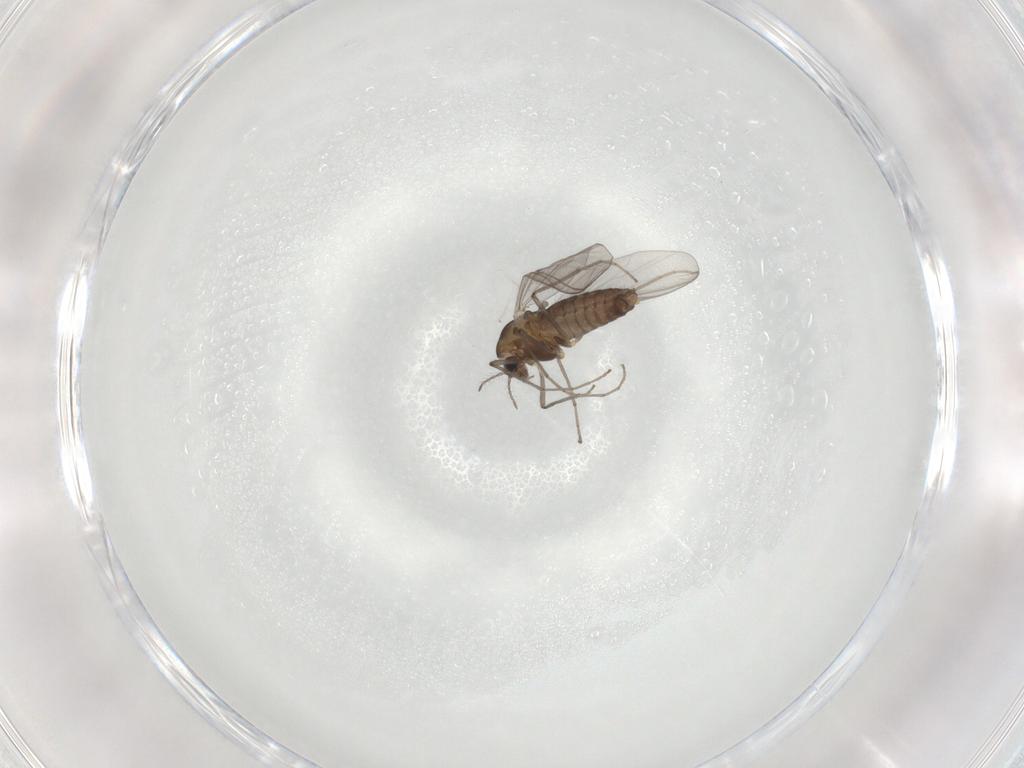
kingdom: Animalia
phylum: Arthropoda
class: Insecta
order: Diptera
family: Chironomidae
